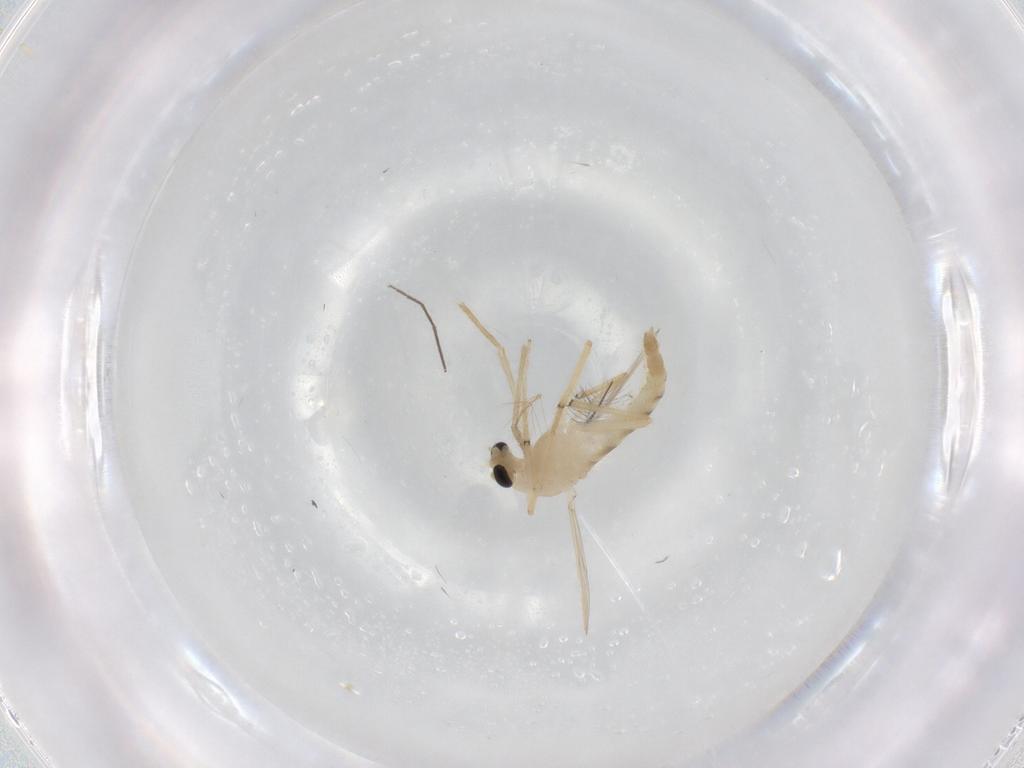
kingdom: Animalia
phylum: Arthropoda
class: Insecta
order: Diptera
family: Chironomidae
